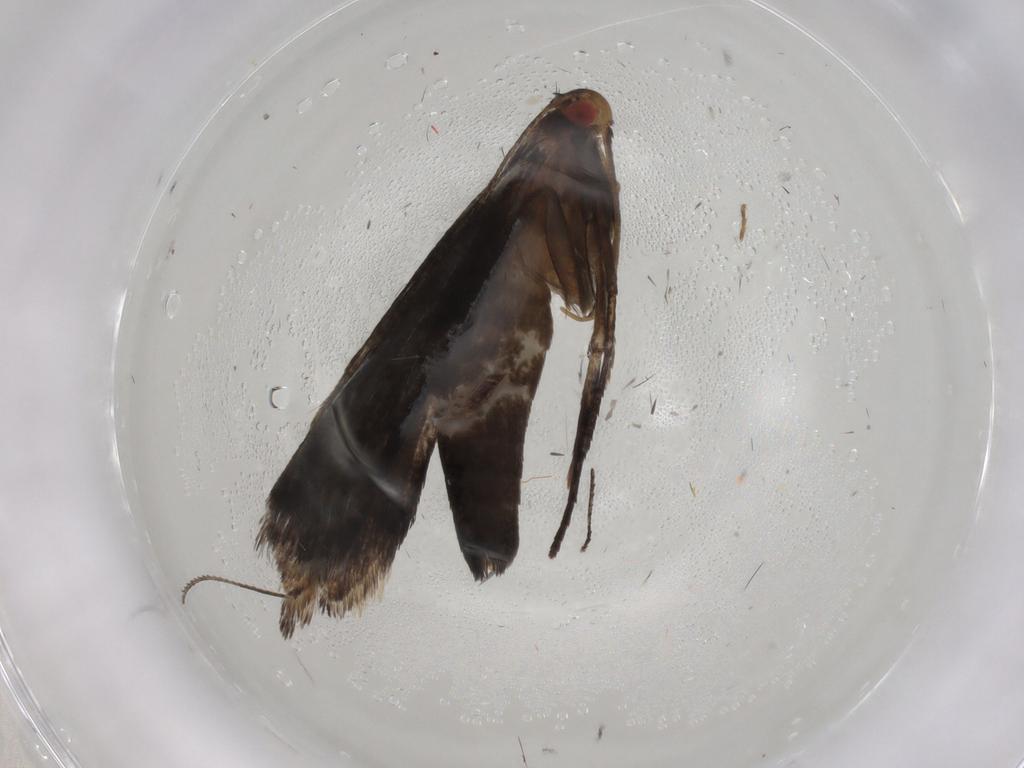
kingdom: Animalia
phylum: Arthropoda
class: Insecta
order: Lepidoptera
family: Gelechiidae
